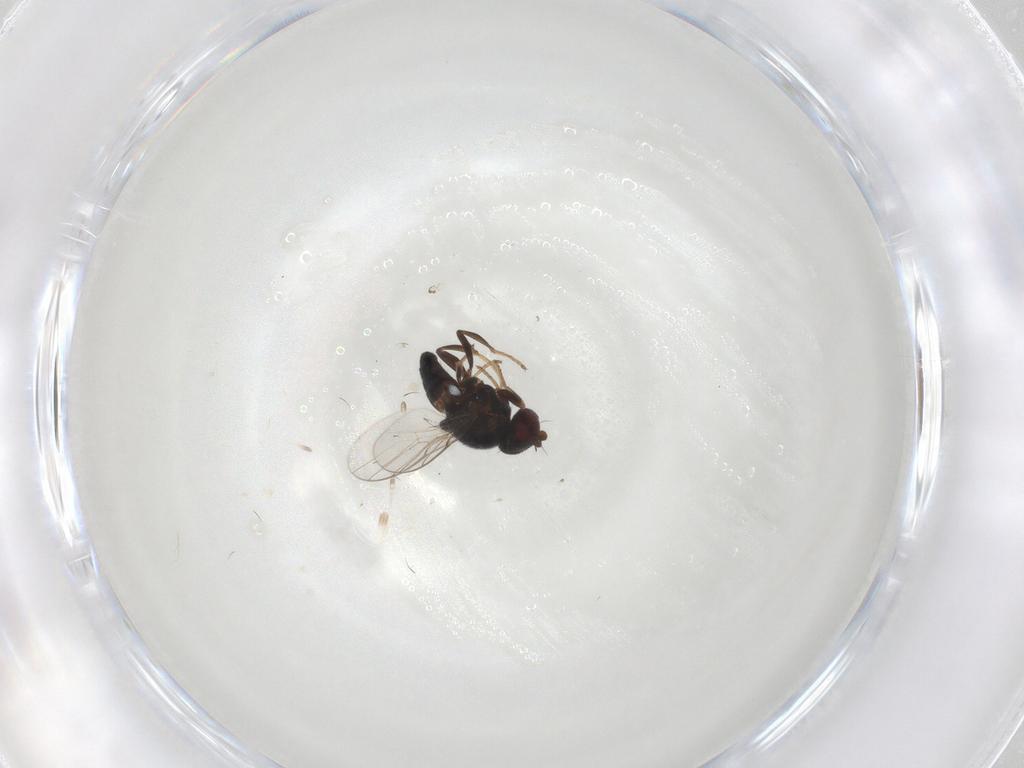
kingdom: Animalia
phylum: Arthropoda
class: Insecta
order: Diptera
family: Chloropidae
